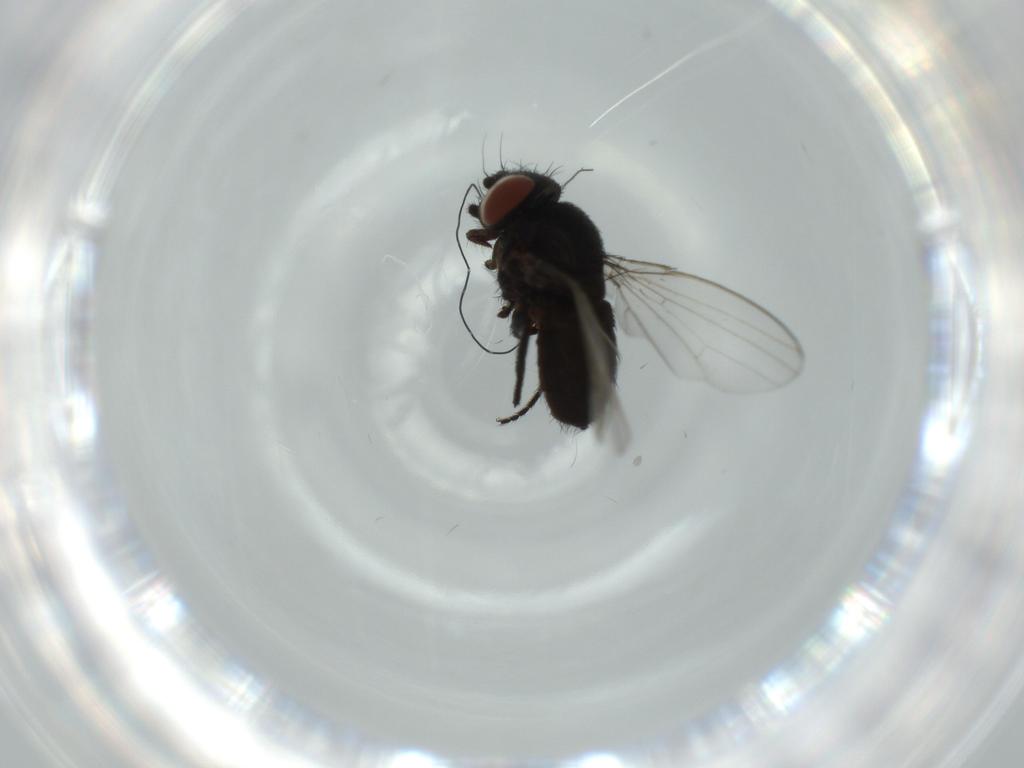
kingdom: Animalia
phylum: Arthropoda
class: Insecta
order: Diptera
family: Milichiidae
